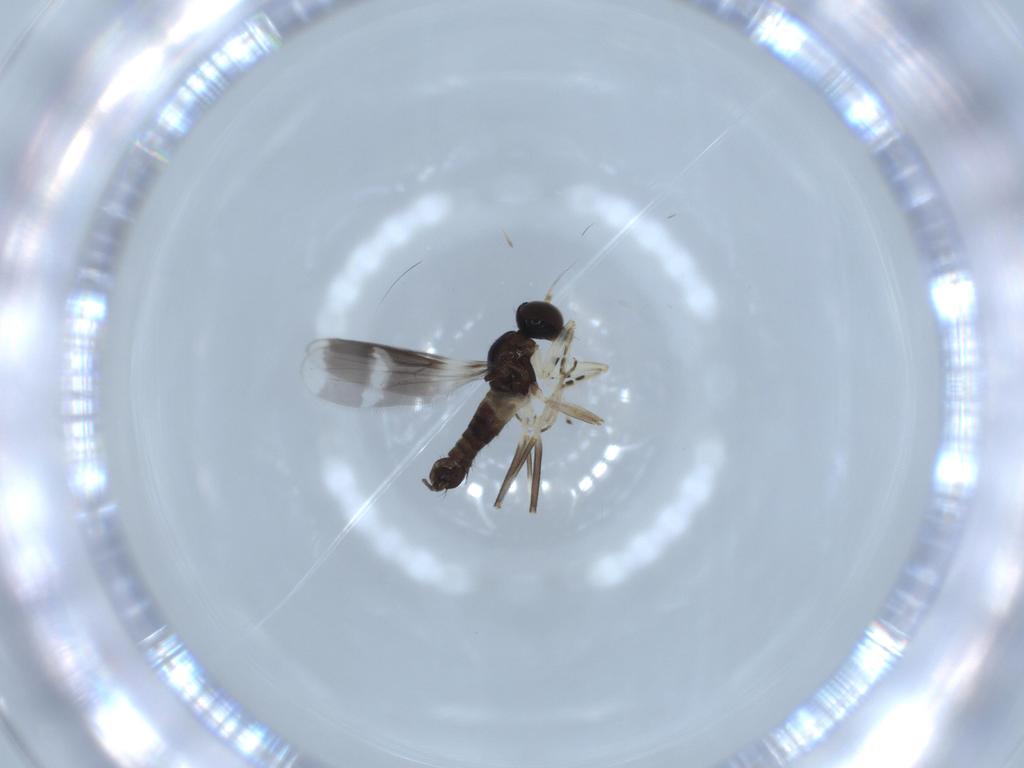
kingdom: Animalia
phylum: Arthropoda
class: Insecta
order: Diptera
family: Hybotidae
